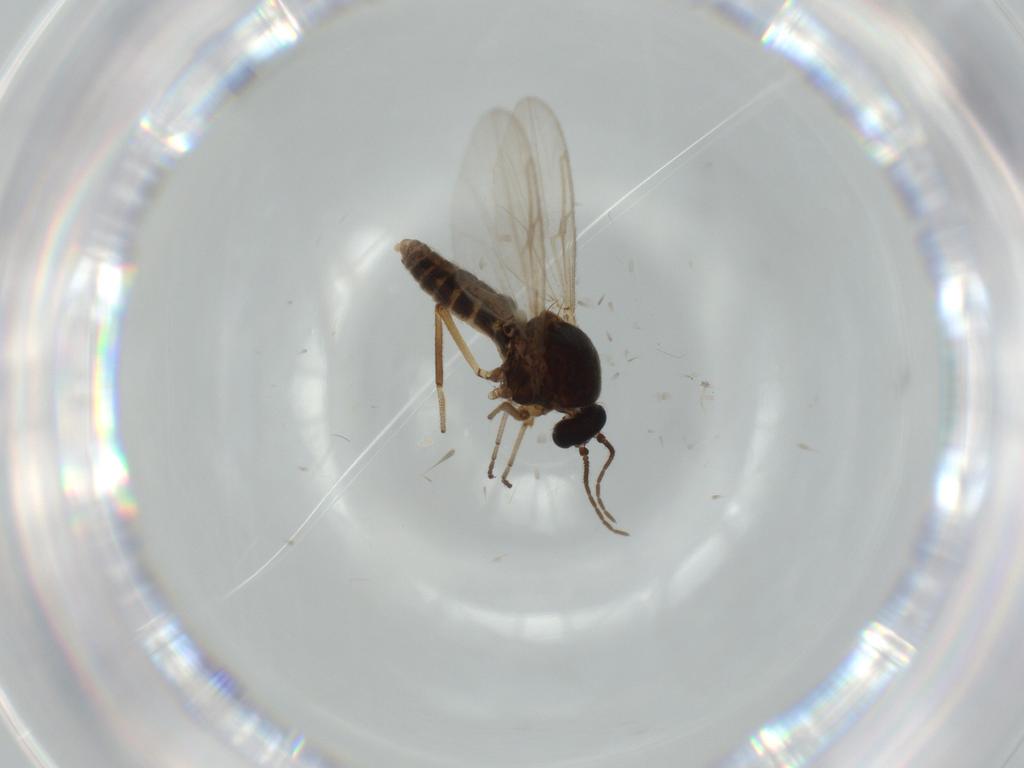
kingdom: Animalia
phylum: Arthropoda
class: Insecta
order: Diptera
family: Ceratopogonidae
